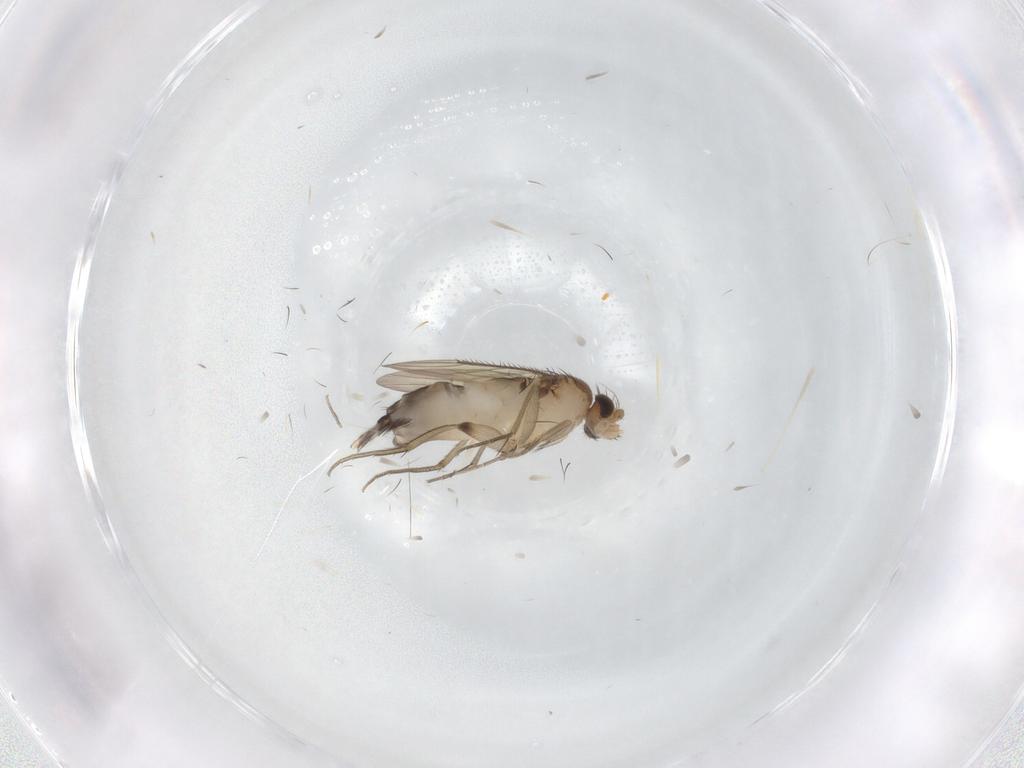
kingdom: Animalia
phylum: Arthropoda
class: Insecta
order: Diptera
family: Phoridae
